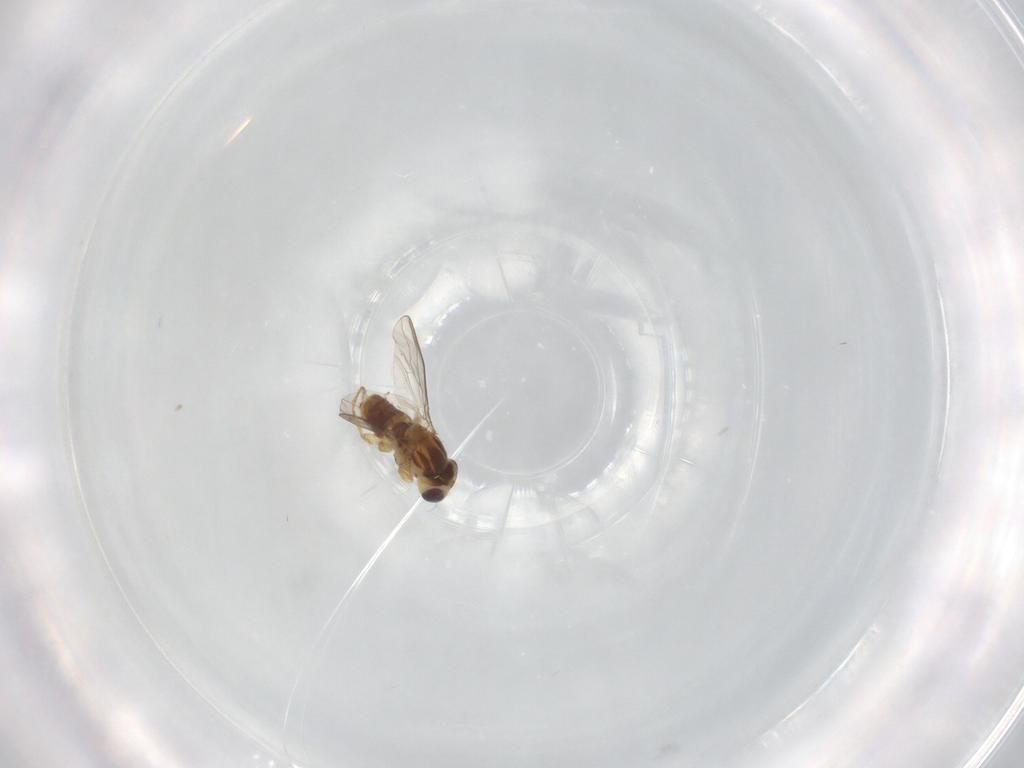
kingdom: Animalia
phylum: Arthropoda
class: Insecta
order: Diptera
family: Chyromyidae
